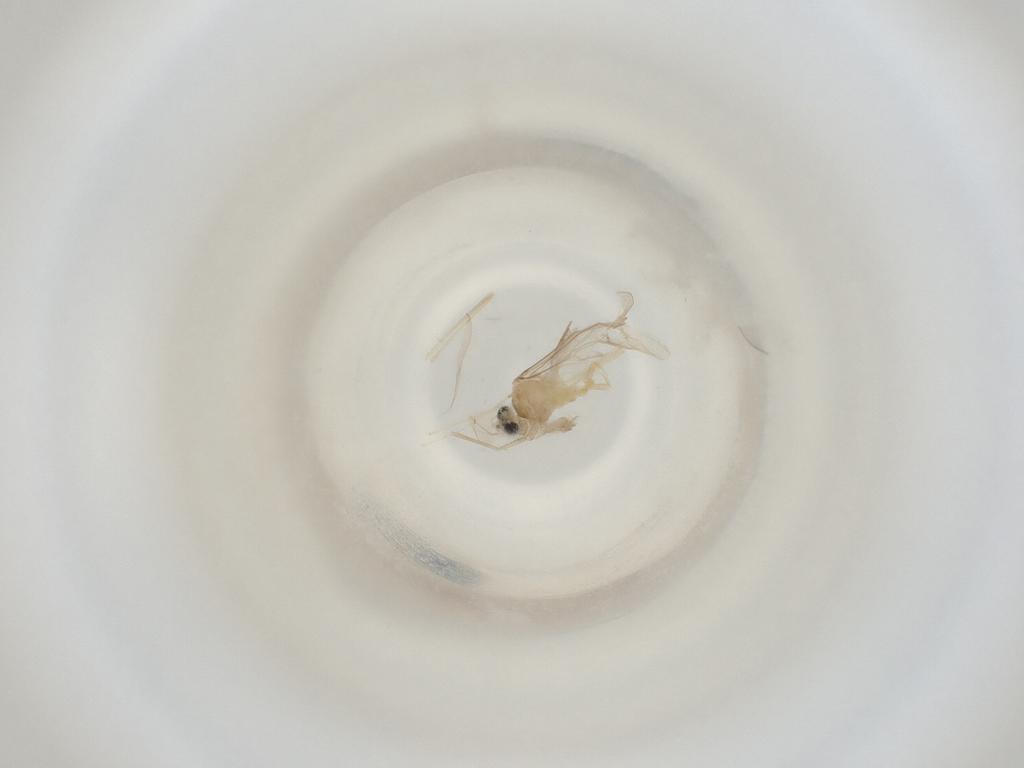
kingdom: Animalia
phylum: Arthropoda
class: Insecta
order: Diptera
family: Cecidomyiidae
